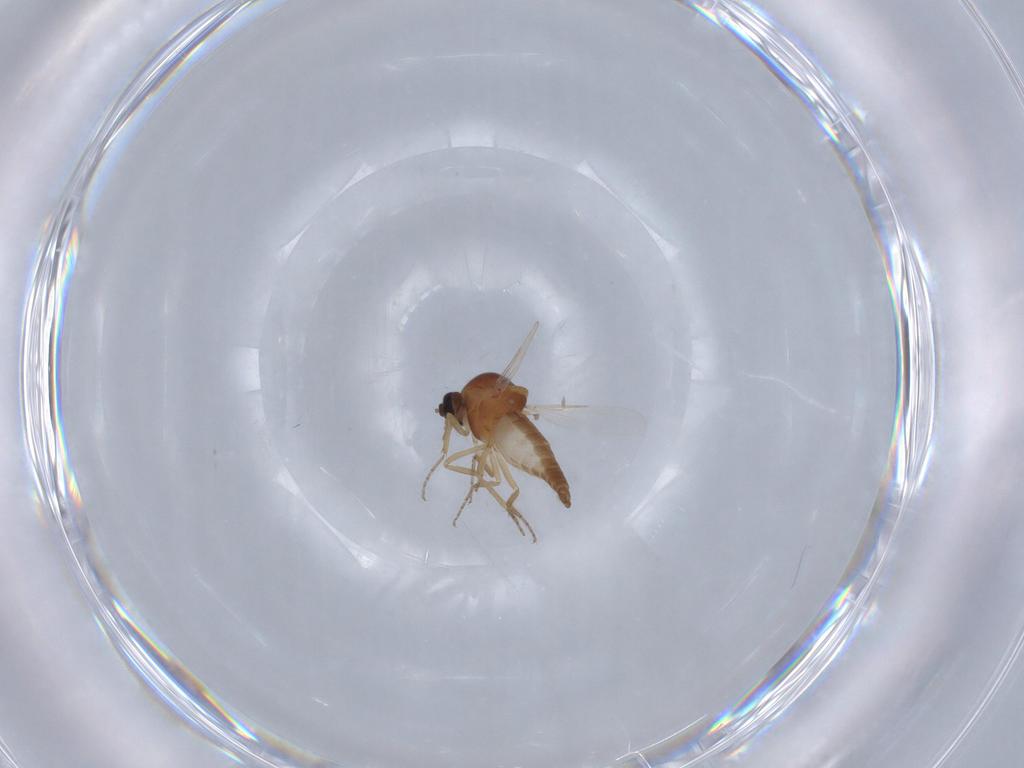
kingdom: Animalia
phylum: Arthropoda
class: Insecta
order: Diptera
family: Ceratopogonidae
